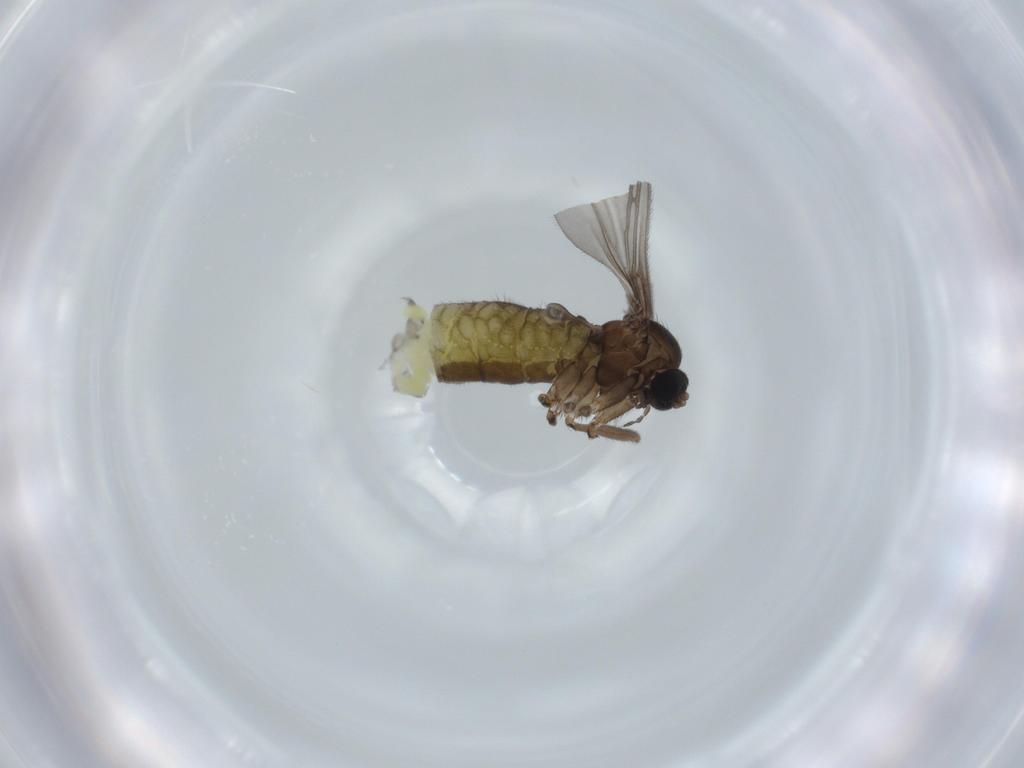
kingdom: Animalia
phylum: Arthropoda
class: Insecta
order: Diptera
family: Sciaridae
